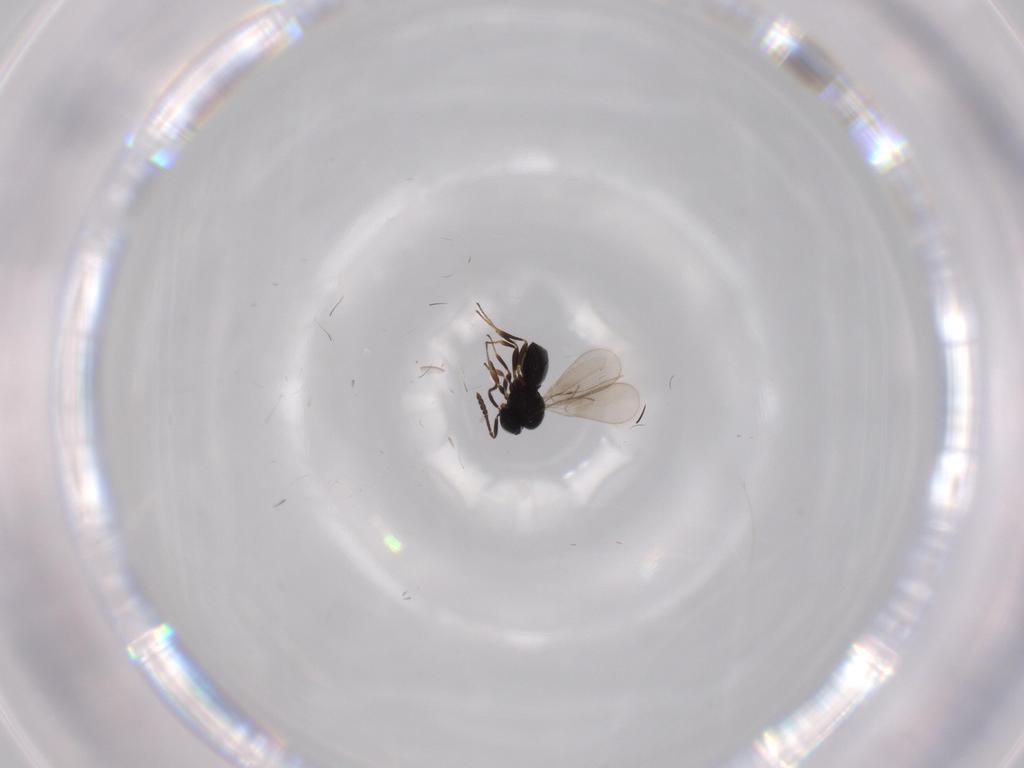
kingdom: Animalia
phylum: Arthropoda
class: Insecta
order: Hymenoptera
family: Scelionidae
